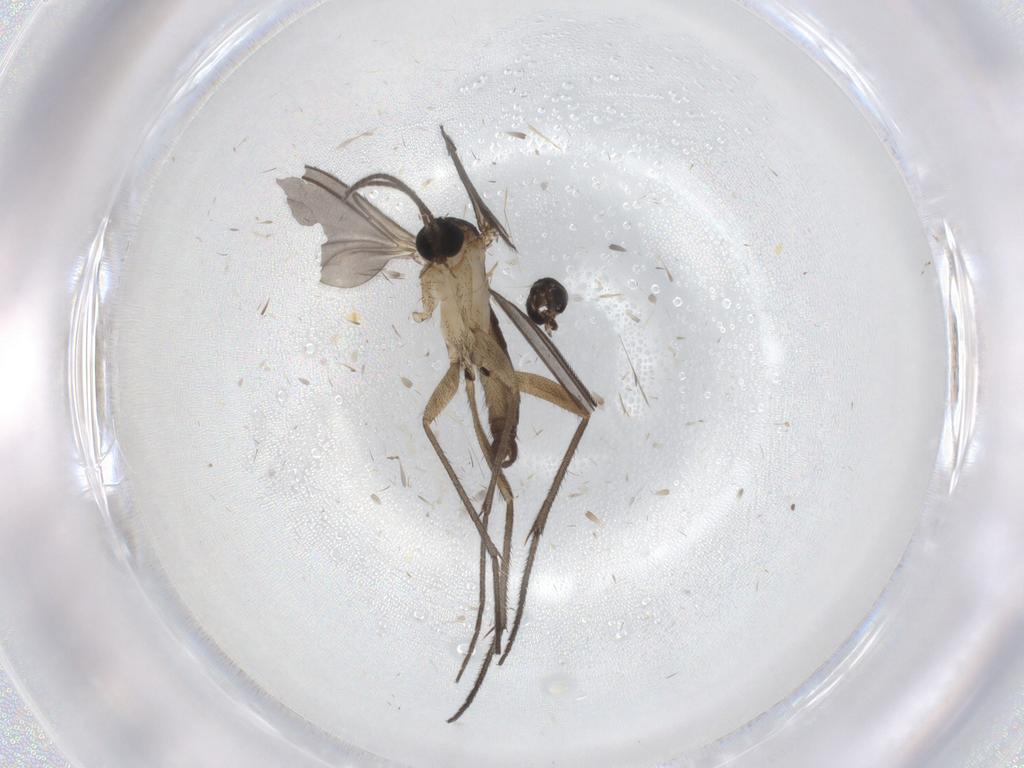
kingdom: Animalia
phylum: Arthropoda
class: Insecta
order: Diptera
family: Sciaridae
